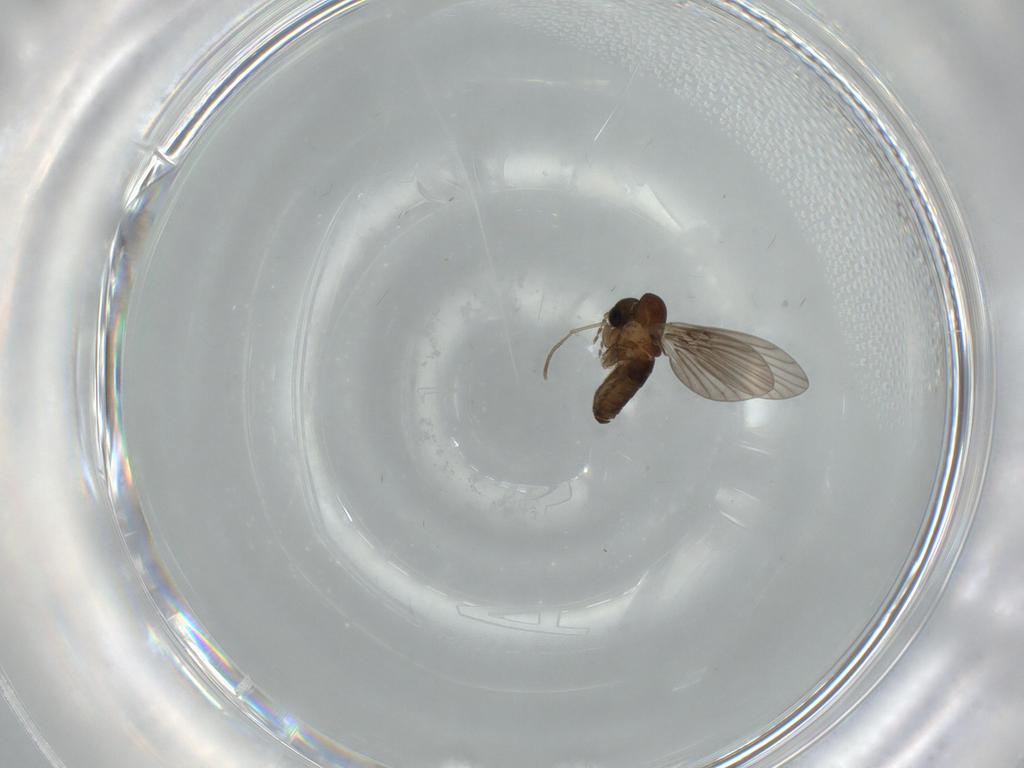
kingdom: Animalia
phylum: Arthropoda
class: Insecta
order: Diptera
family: Psychodidae
